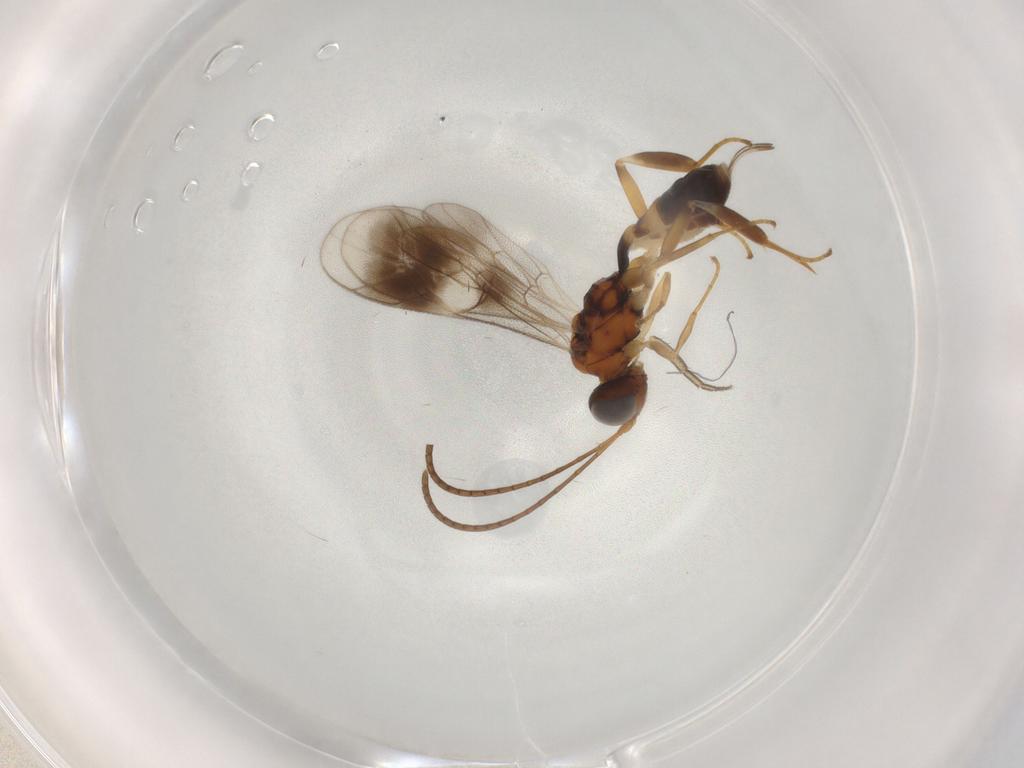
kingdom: Animalia
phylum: Arthropoda
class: Insecta
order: Hymenoptera
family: Ichneumonidae
